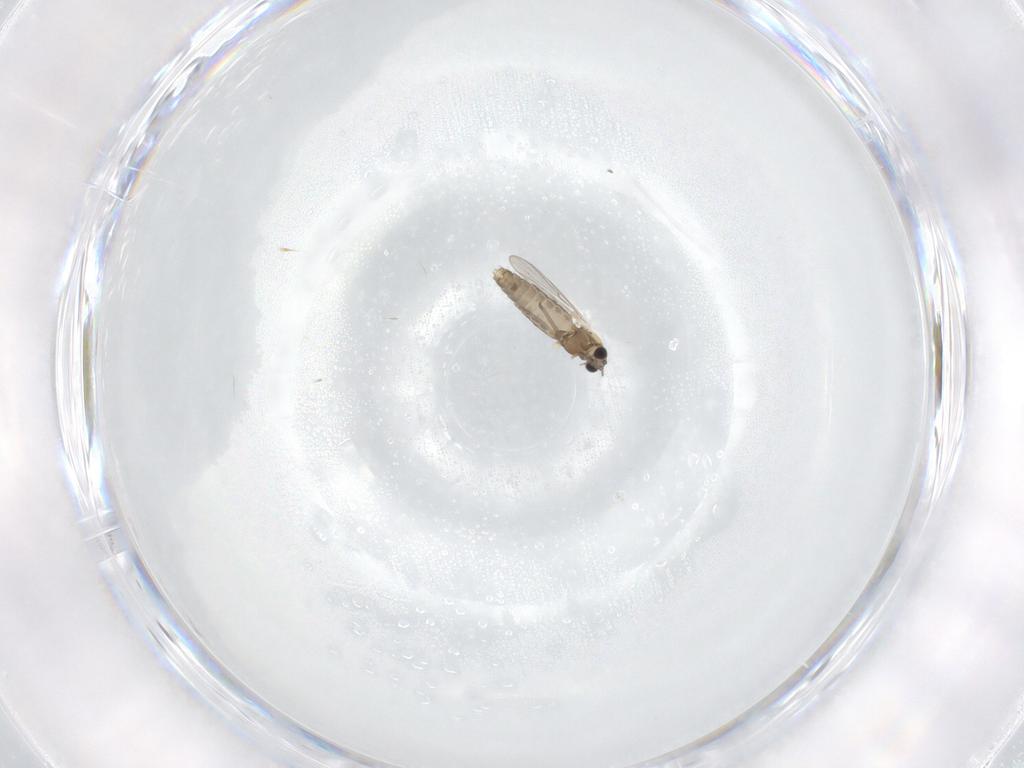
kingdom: Animalia
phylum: Arthropoda
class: Insecta
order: Diptera
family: Chironomidae
